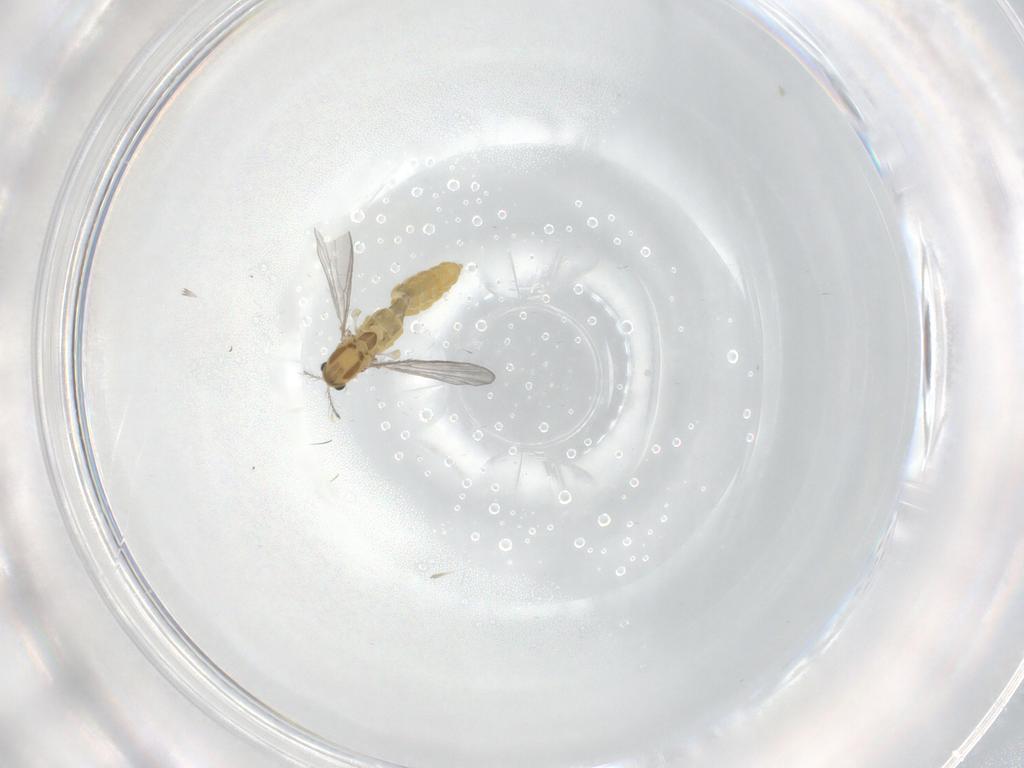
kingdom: Animalia
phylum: Arthropoda
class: Insecta
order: Diptera
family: Chironomidae
